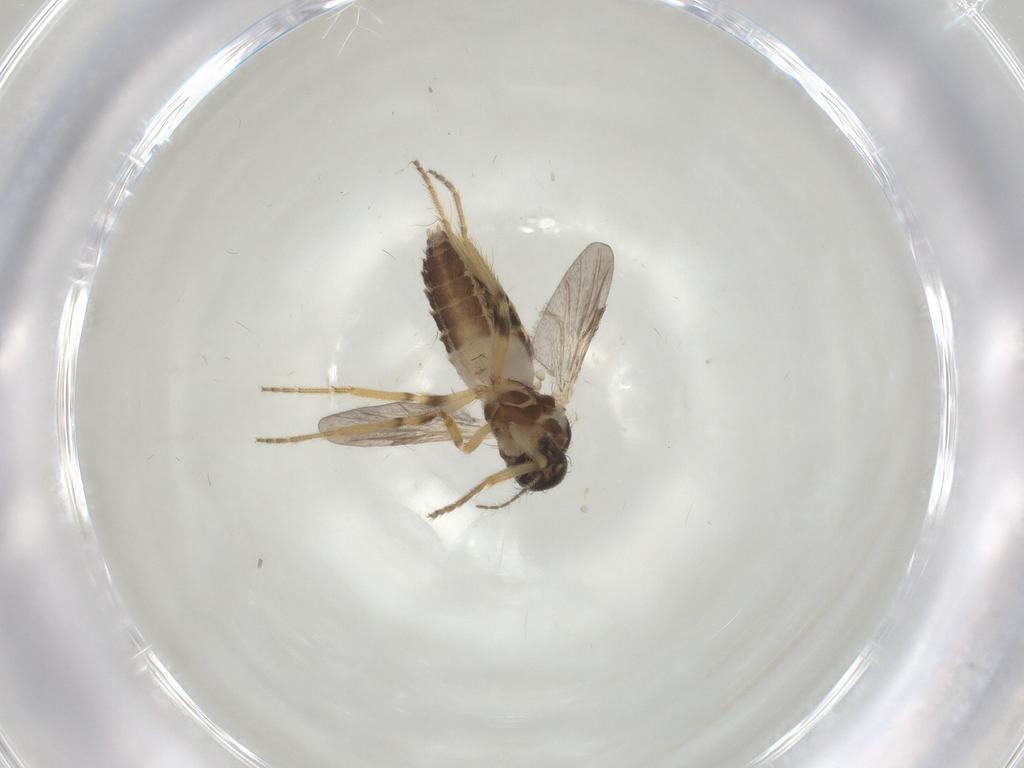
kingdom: Animalia
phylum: Arthropoda
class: Insecta
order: Diptera
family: Ceratopogonidae
